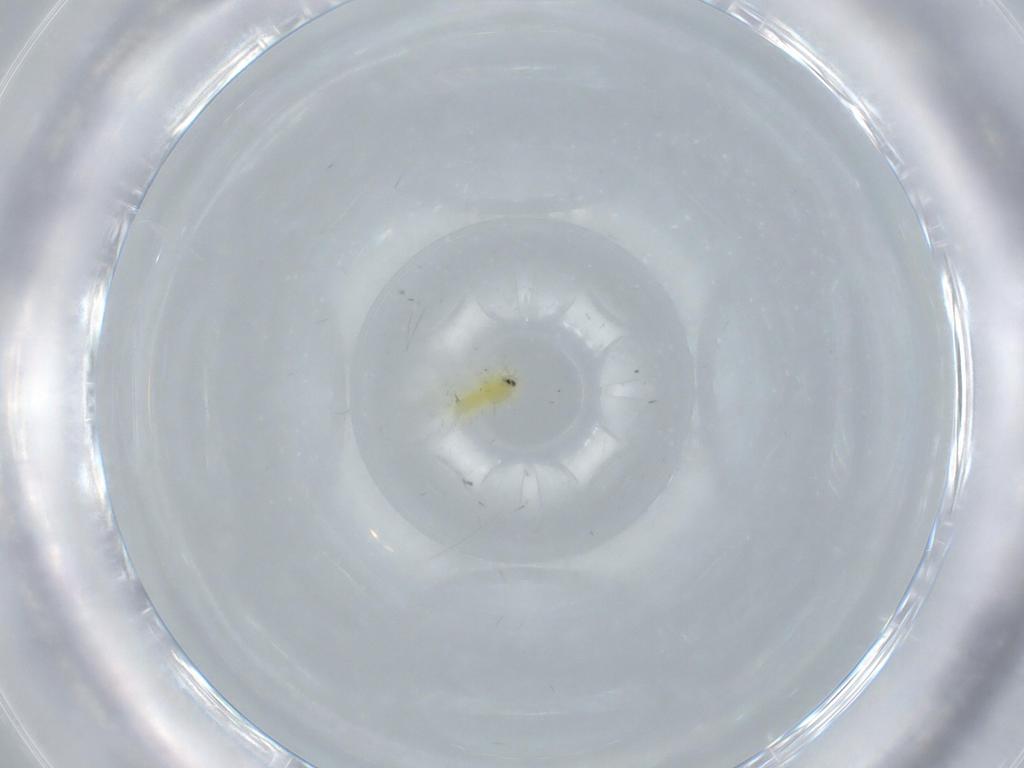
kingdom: Animalia
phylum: Arthropoda
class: Insecta
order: Hemiptera
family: Aleyrodidae
